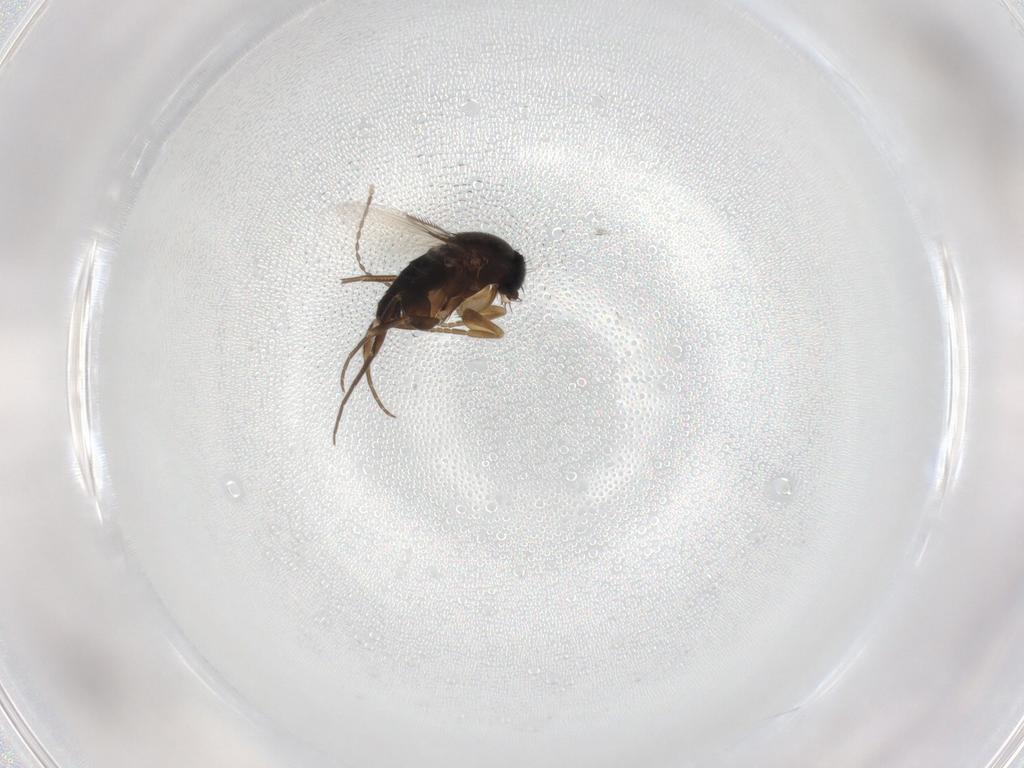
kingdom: Animalia
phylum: Arthropoda
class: Insecta
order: Diptera
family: Phoridae
